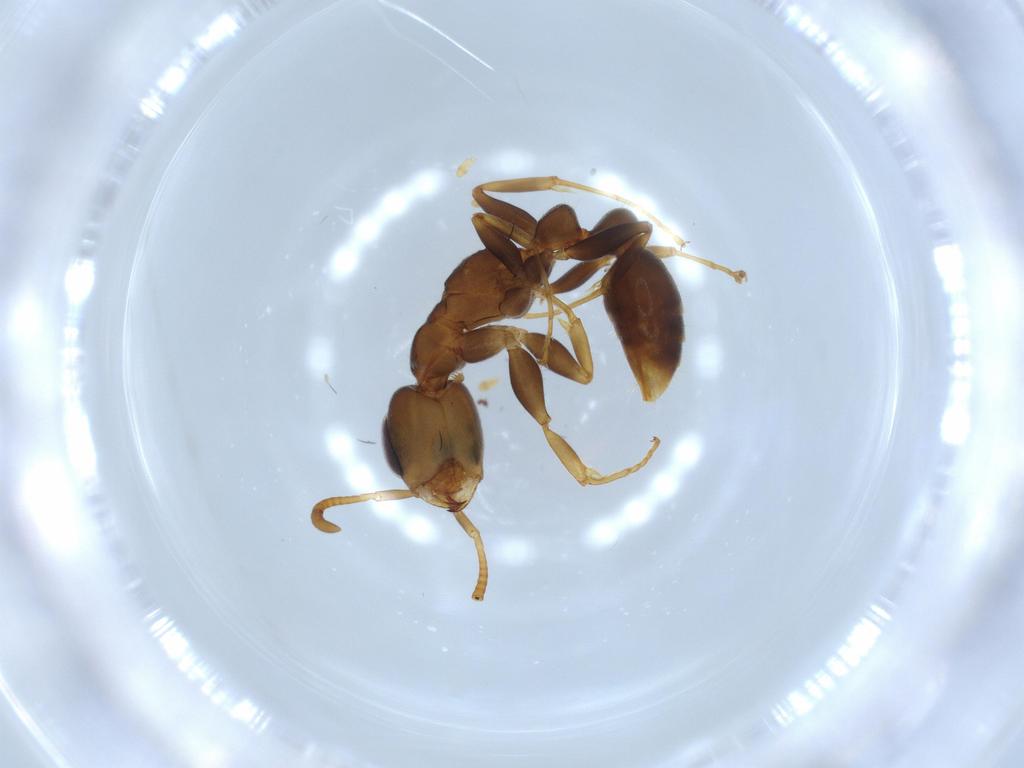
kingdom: Animalia
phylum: Arthropoda
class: Insecta
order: Hymenoptera
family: Formicidae
